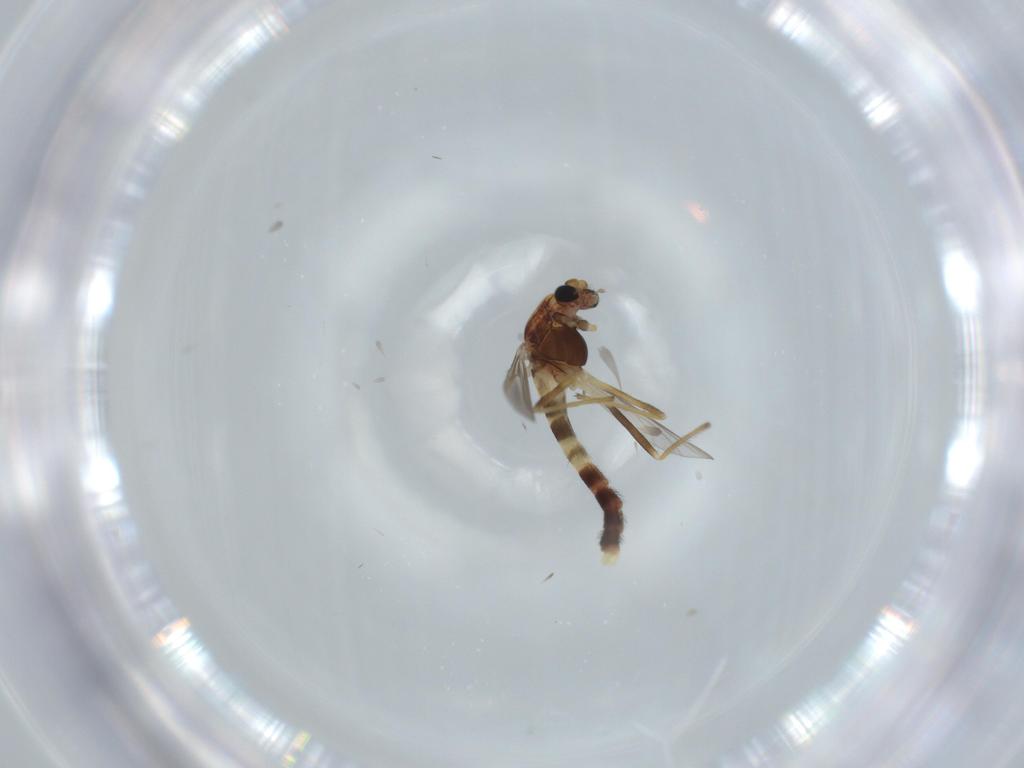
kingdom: Animalia
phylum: Arthropoda
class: Insecta
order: Diptera
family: Chironomidae
